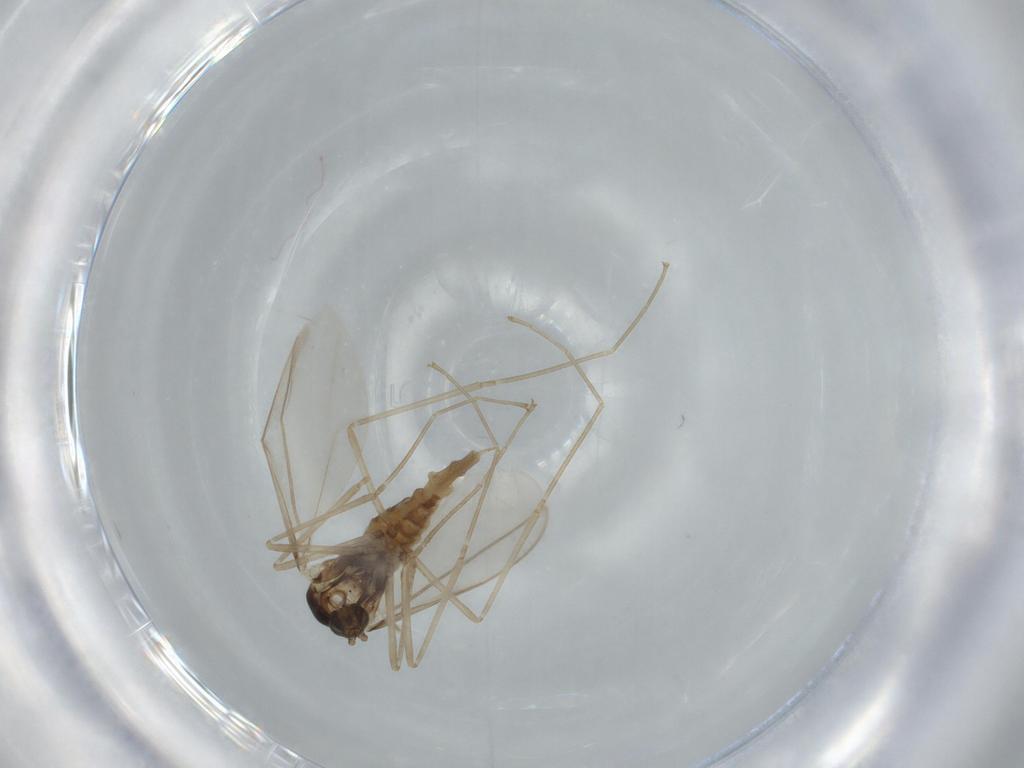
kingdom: Animalia
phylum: Arthropoda
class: Insecta
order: Diptera
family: Cecidomyiidae
